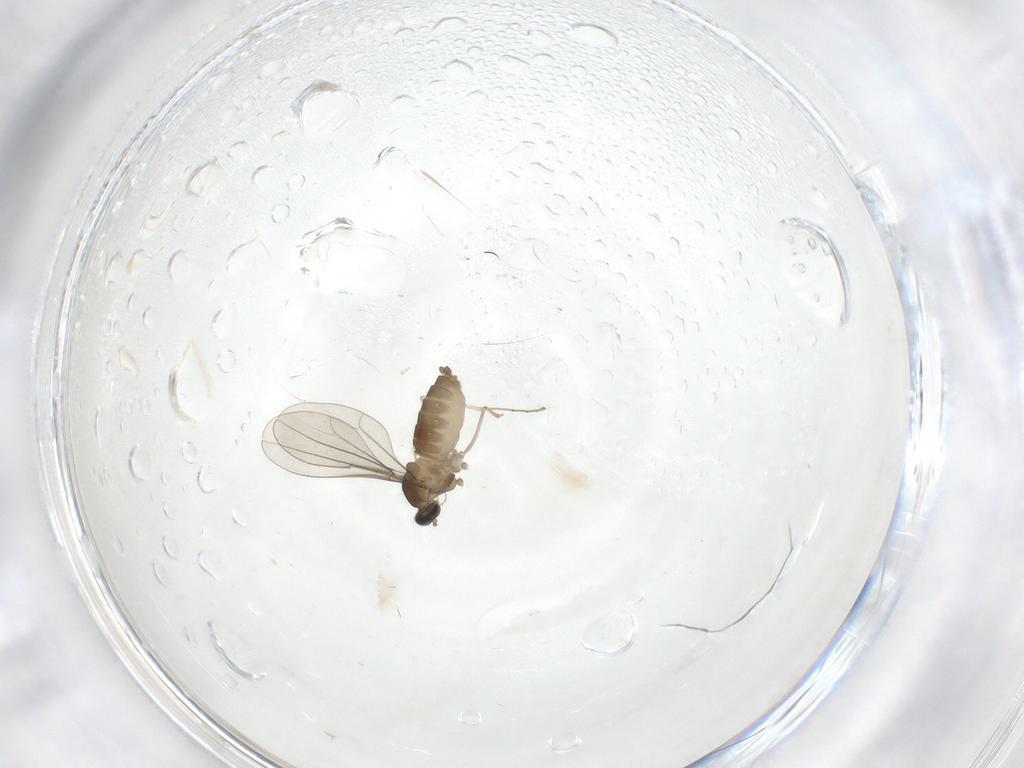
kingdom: Animalia
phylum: Arthropoda
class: Insecta
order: Diptera
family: Cecidomyiidae
